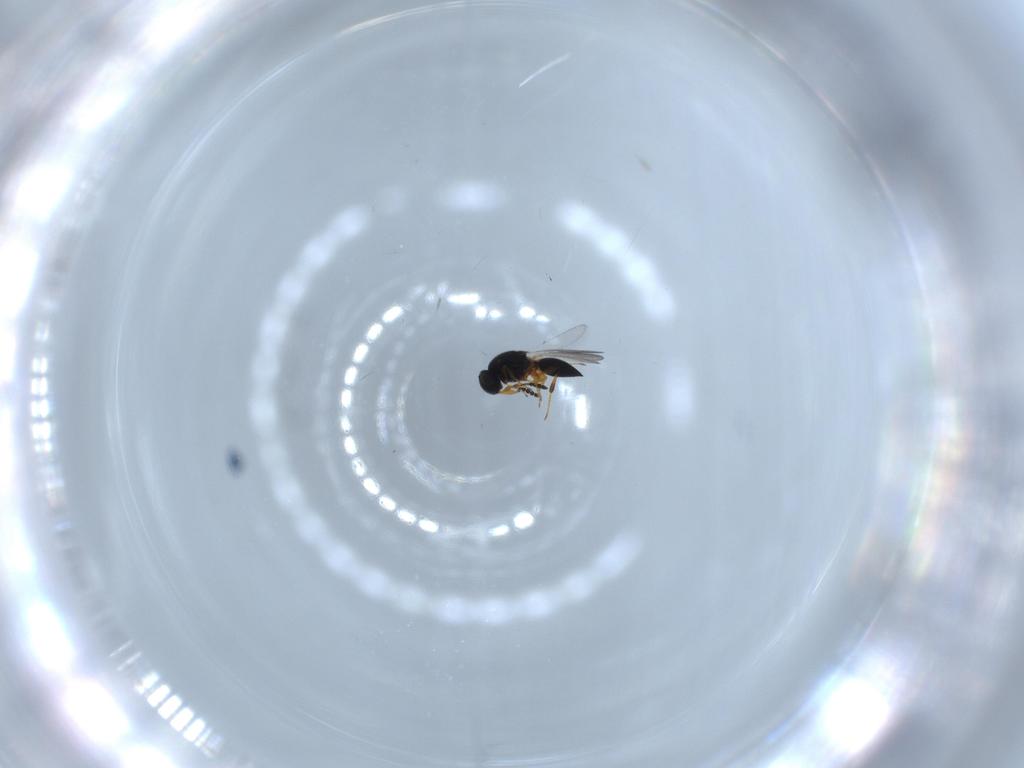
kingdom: Animalia
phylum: Arthropoda
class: Insecta
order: Hymenoptera
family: Platygastridae
